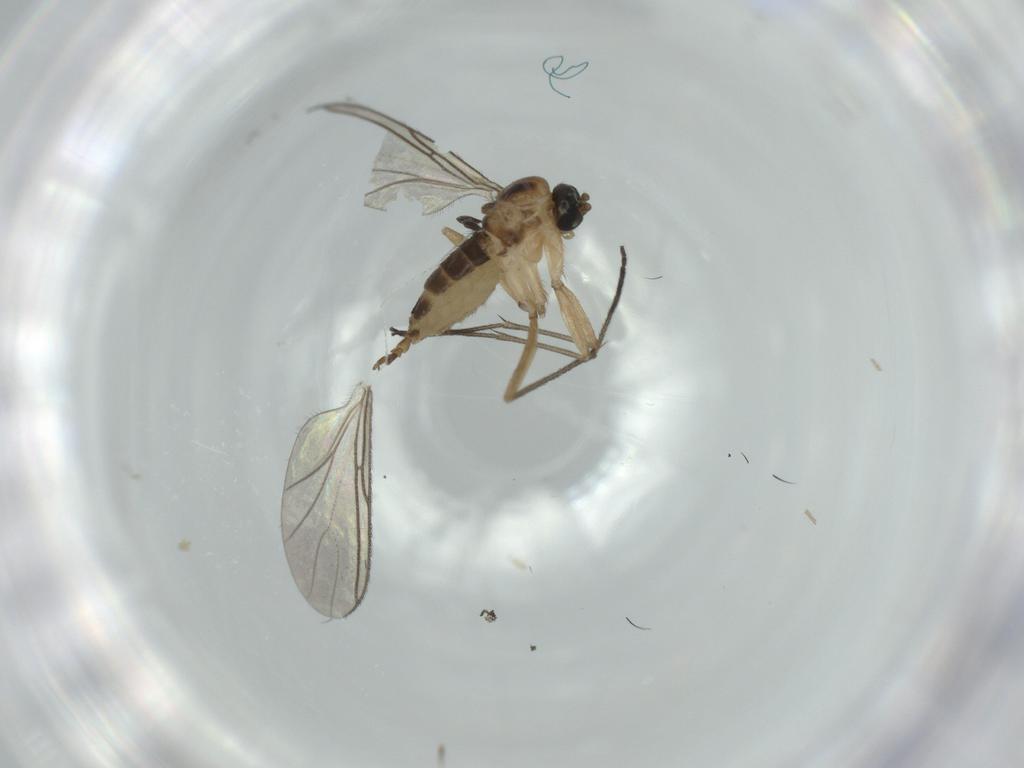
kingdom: Animalia
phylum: Arthropoda
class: Insecta
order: Diptera
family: Sciaridae
